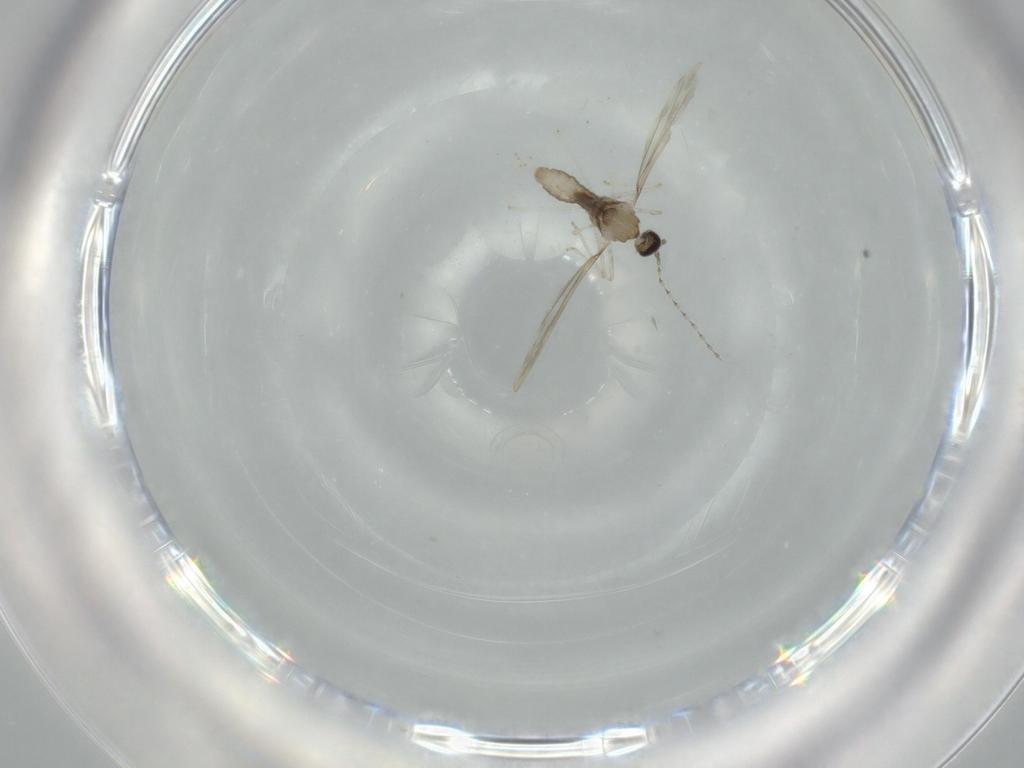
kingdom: Animalia
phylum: Arthropoda
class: Insecta
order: Diptera
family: Cecidomyiidae
